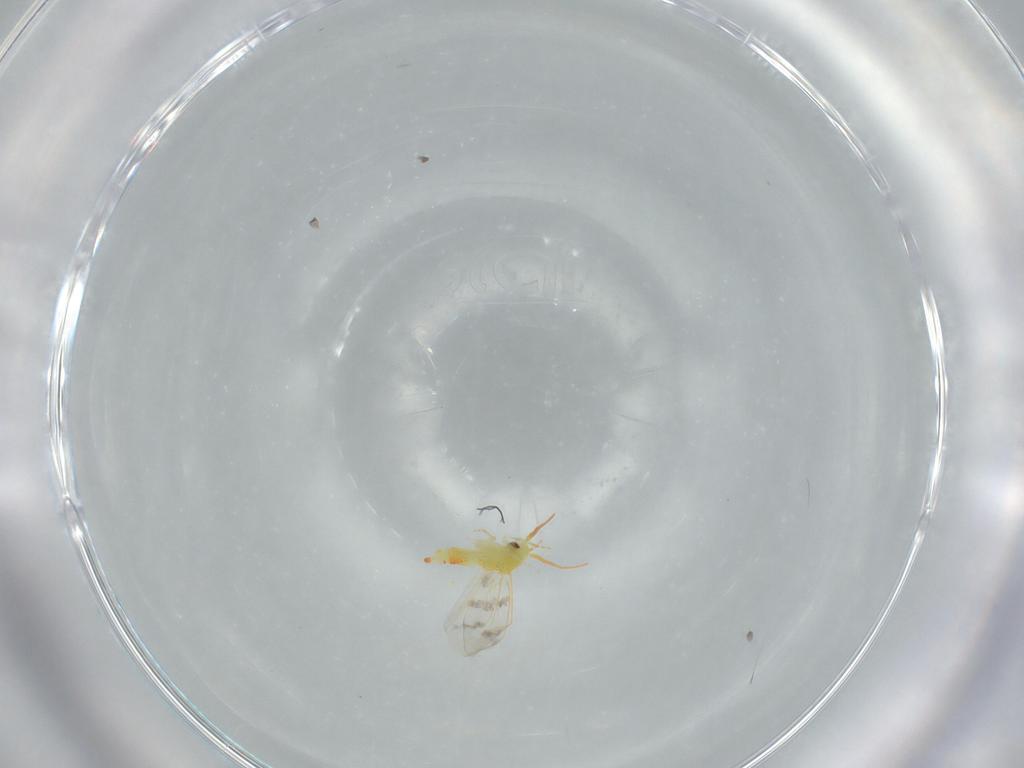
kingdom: Animalia
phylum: Arthropoda
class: Insecta
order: Hemiptera
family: Aleyrodidae
